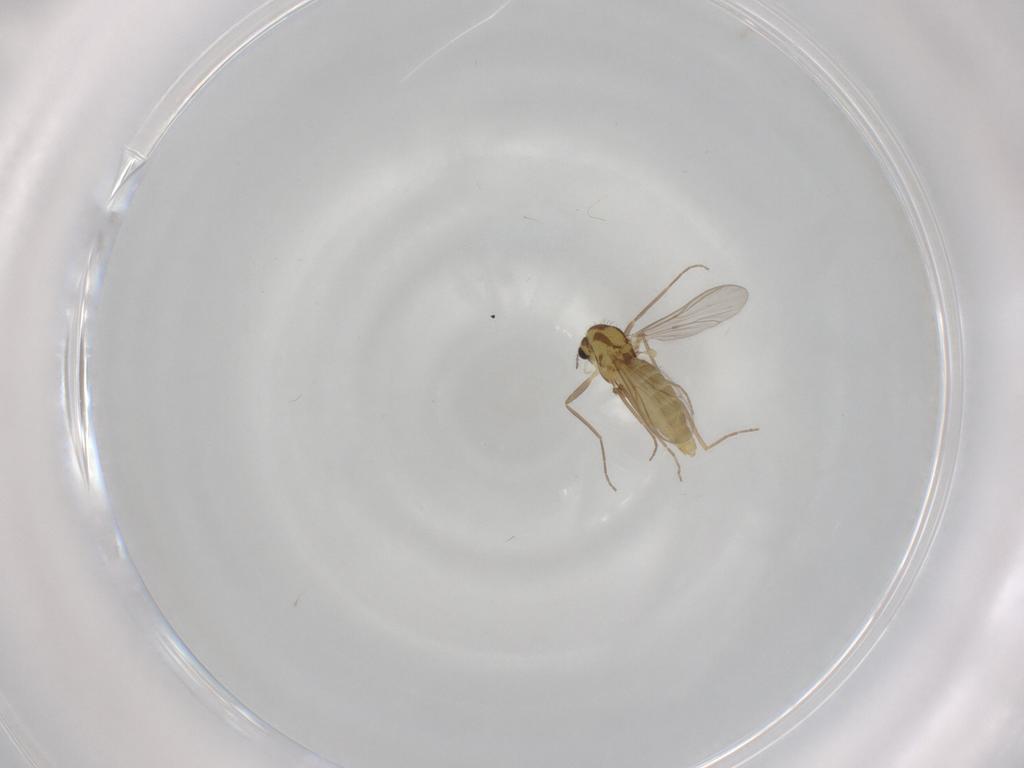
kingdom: Animalia
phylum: Arthropoda
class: Insecta
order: Diptera
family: Chironomidae
